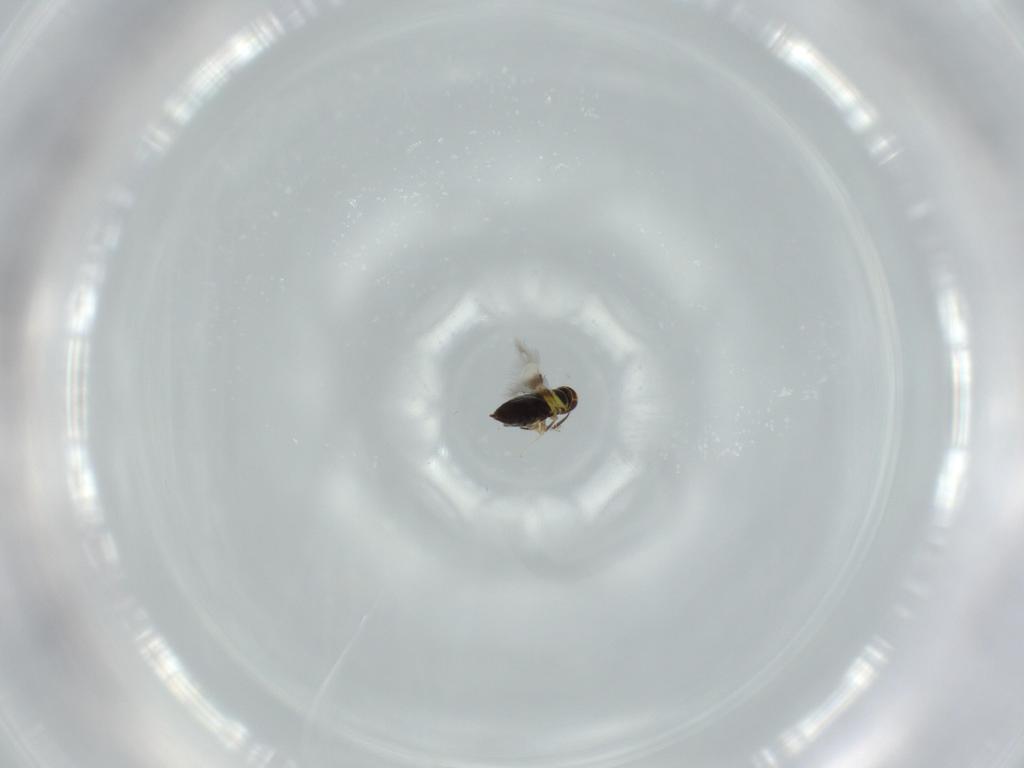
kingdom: Animalia
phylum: Arthropoda
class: Insecta
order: Hymenoptera
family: Signiphoridae
